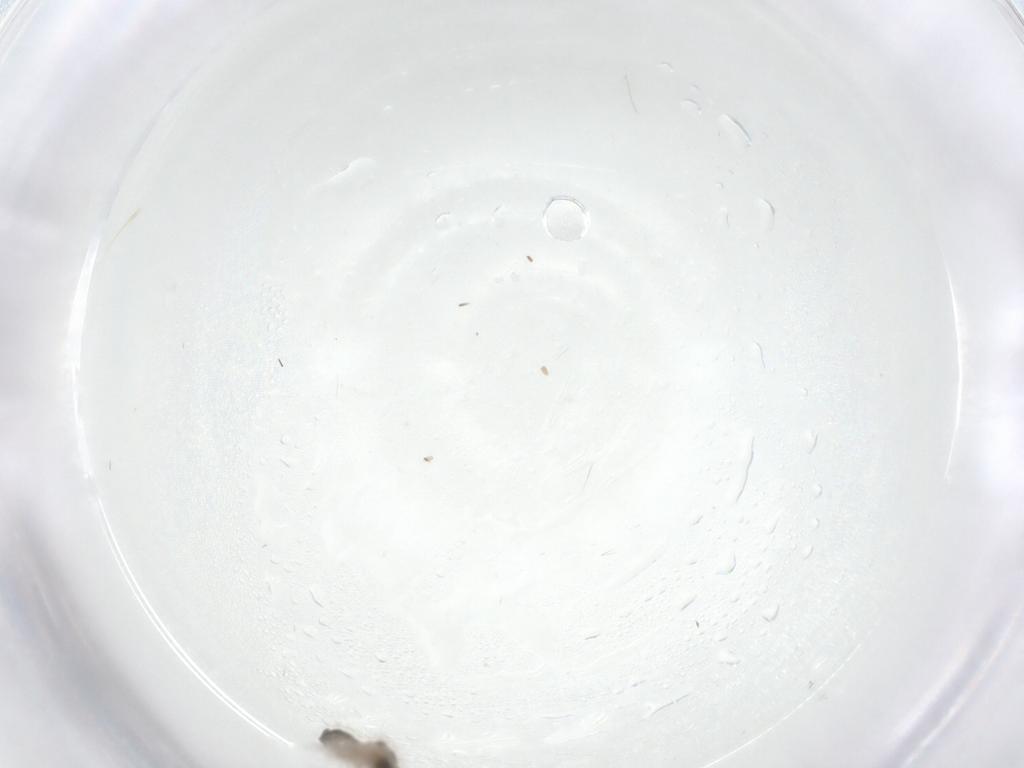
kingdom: Animalia
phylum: Arthropoda
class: Insecta
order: Diptera
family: Cecidomyiidae
